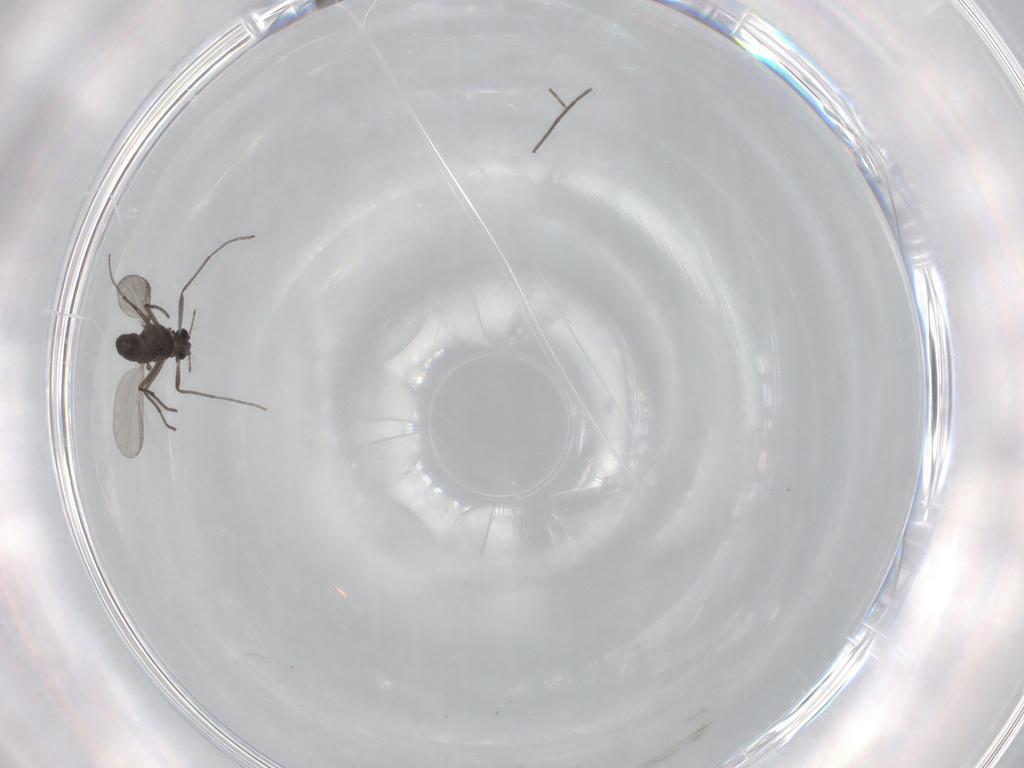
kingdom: Animalia
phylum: Arthropoda
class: Insecta
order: Diptera
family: Chironomidae
